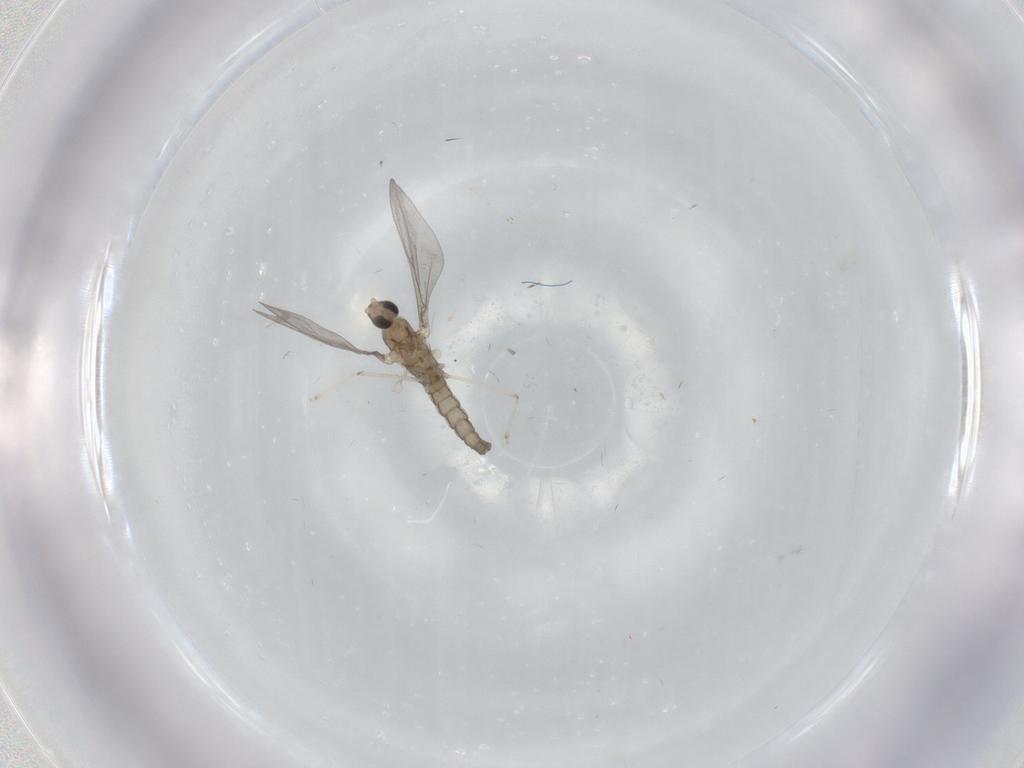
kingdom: Animalia
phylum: Arthropoda
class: Insecta
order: Diptera
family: Cecidomyiidae
